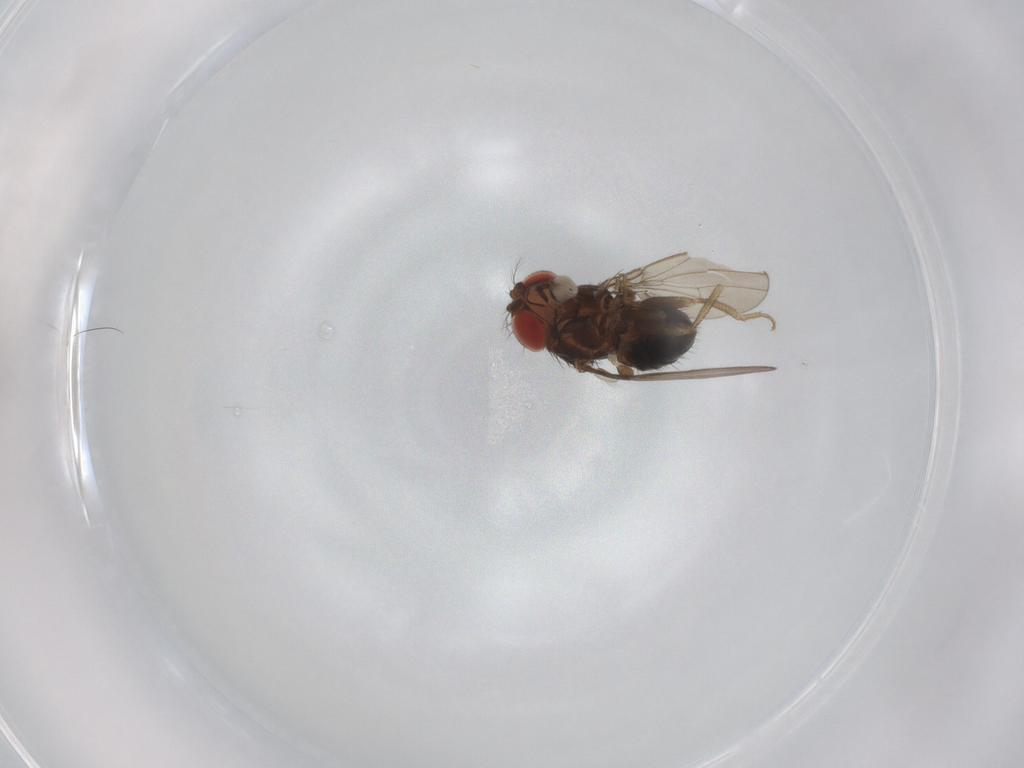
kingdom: Animalia
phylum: Arthropoda
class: Insecta
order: Diptera
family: Drosophilidae
